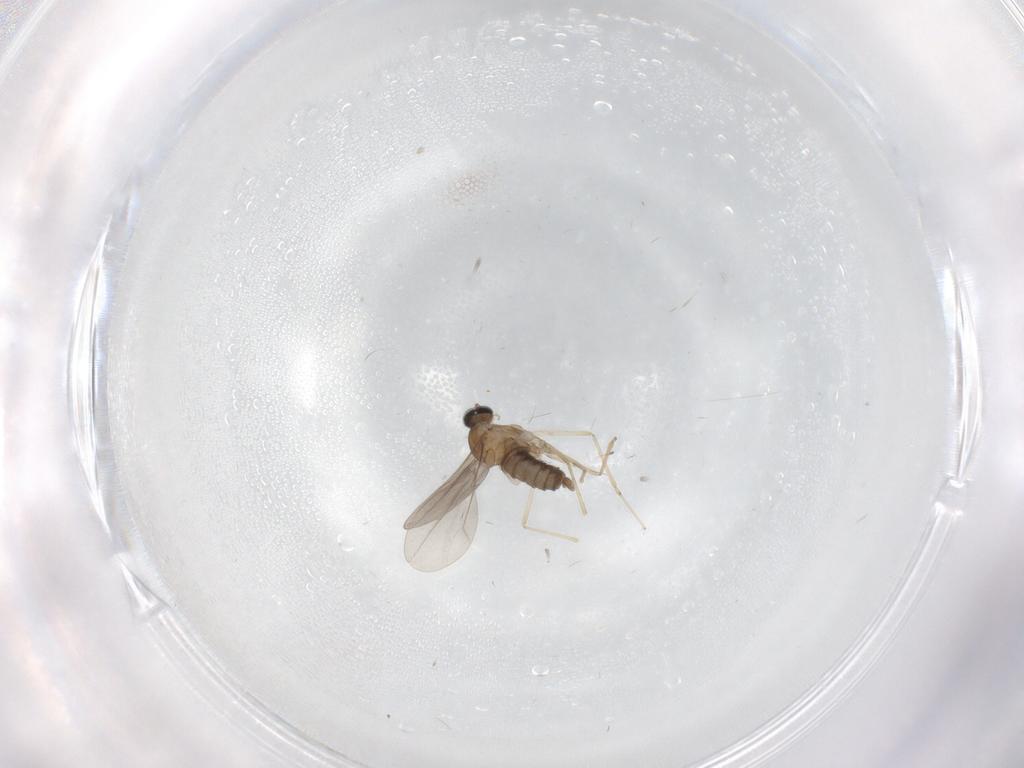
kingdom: Animalia
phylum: Arthropoda
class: Insecta
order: Diptera
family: Cecidomyiidae
